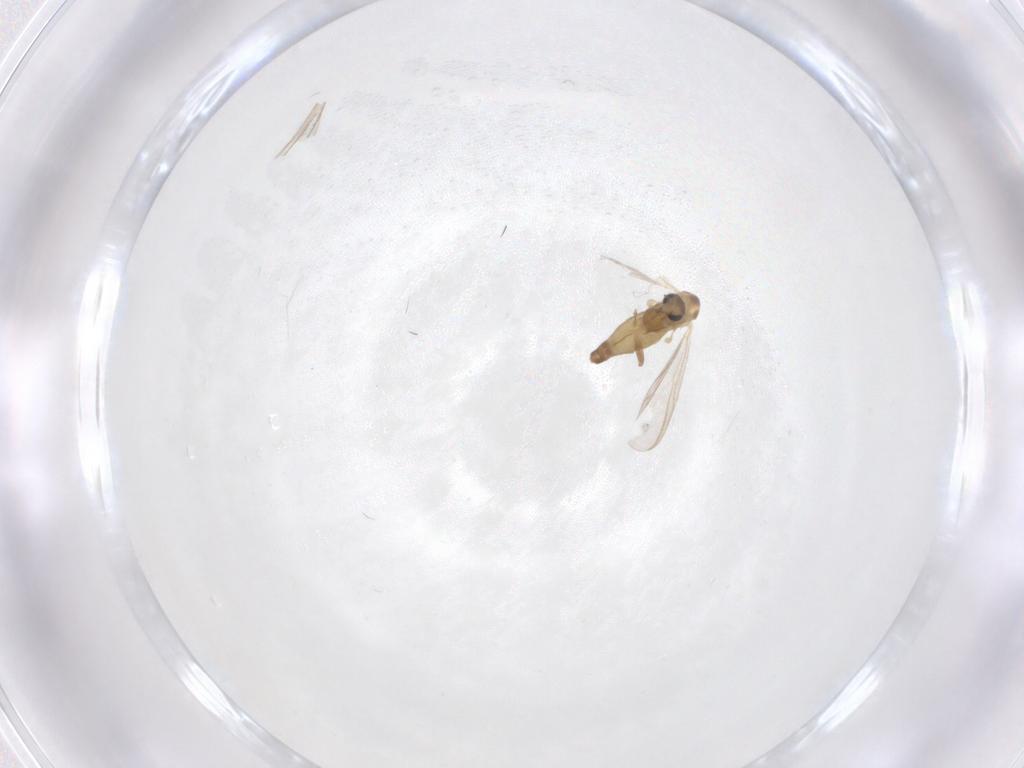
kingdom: Animalia
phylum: Arthropoda
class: Insecta
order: Diptera
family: Chironomidae
